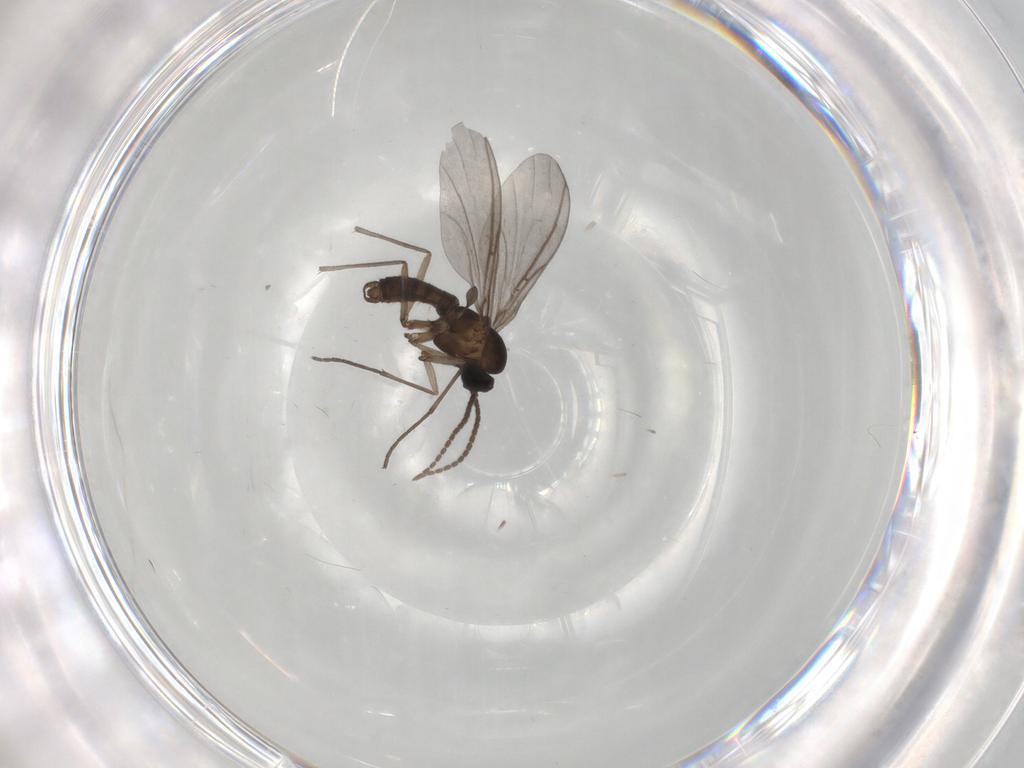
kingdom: Animalia
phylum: Arthropoda
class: Insecta
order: Diptera
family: Sciaridae
